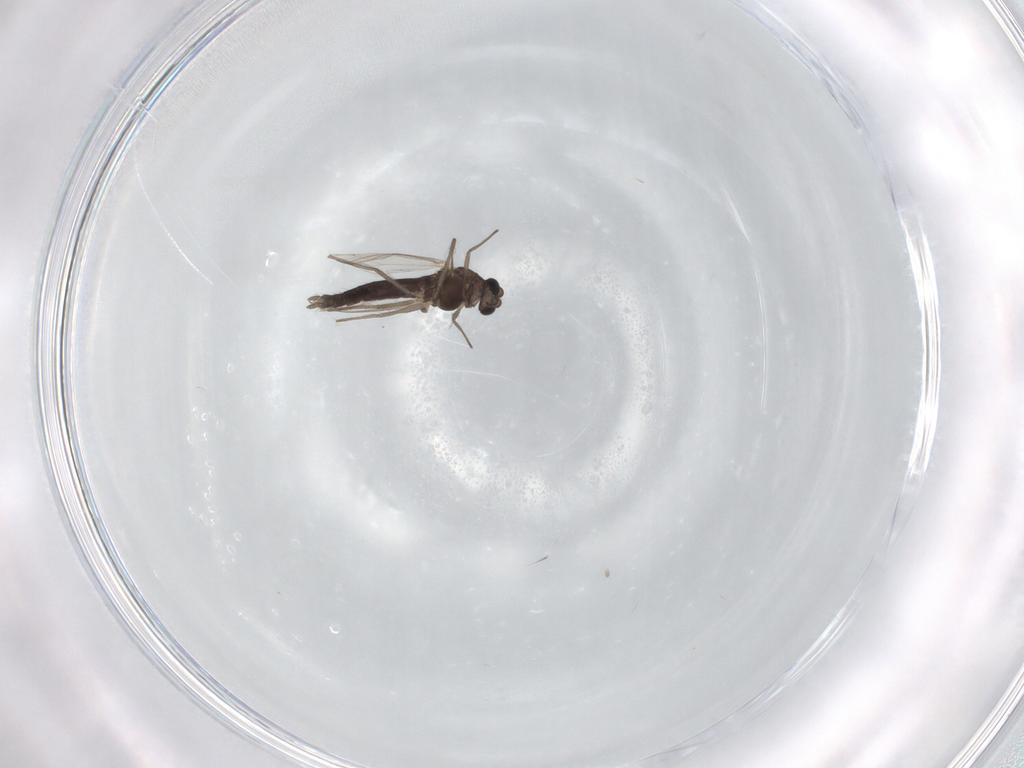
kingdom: Animalia
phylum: Arthropoda
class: Insecta
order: Diptera
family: Chironomidae
